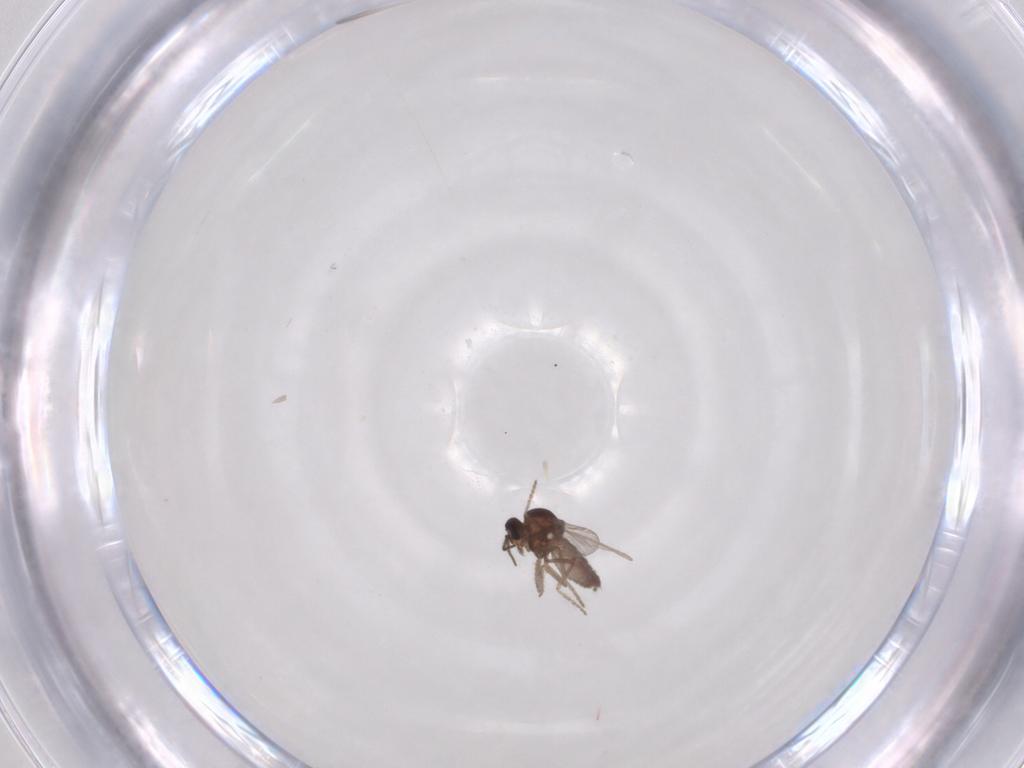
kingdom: Animalia
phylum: Arthropoda
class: Insecta
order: Diptera
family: Ceratopogonidae
